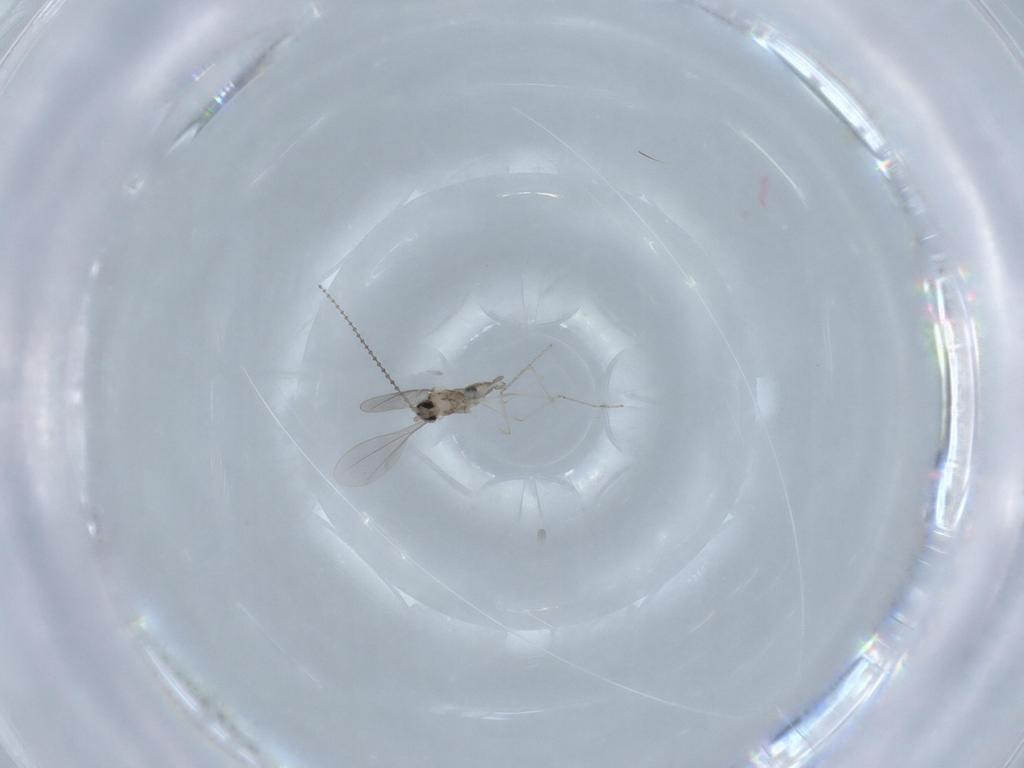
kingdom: Animalia
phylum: Arthropoda
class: Insecta
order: Diptera
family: Cecidomyiidae
